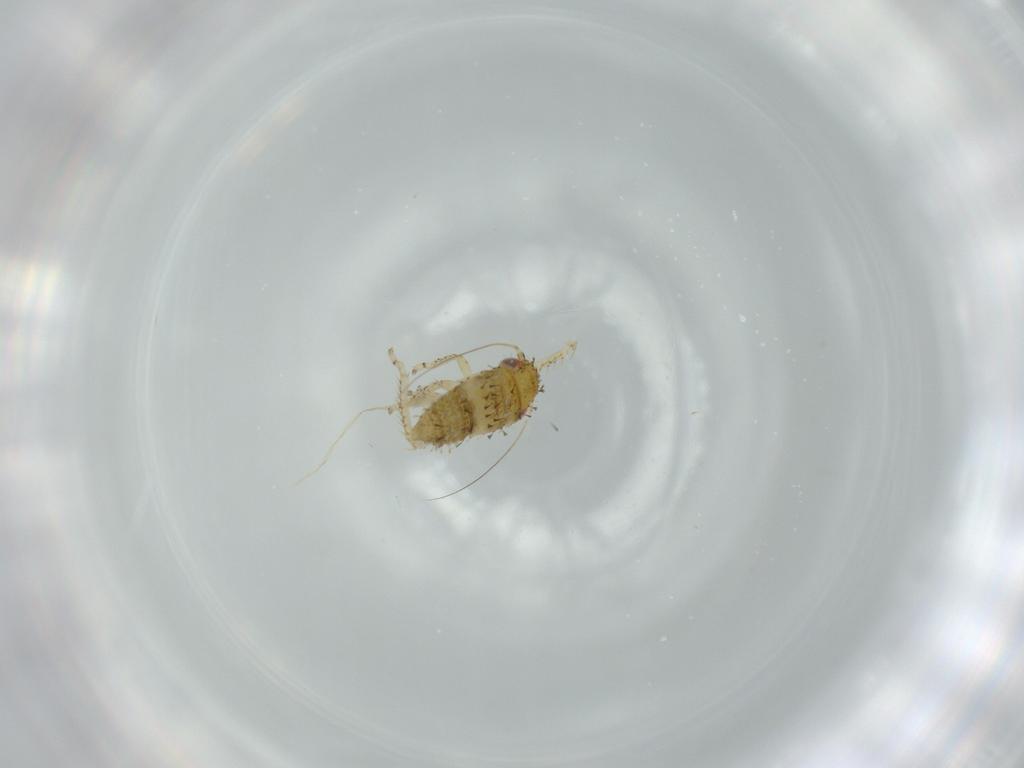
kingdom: Animalia
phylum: Arthropoda
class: Insecta
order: Hemiptera
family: Cicadellidae
